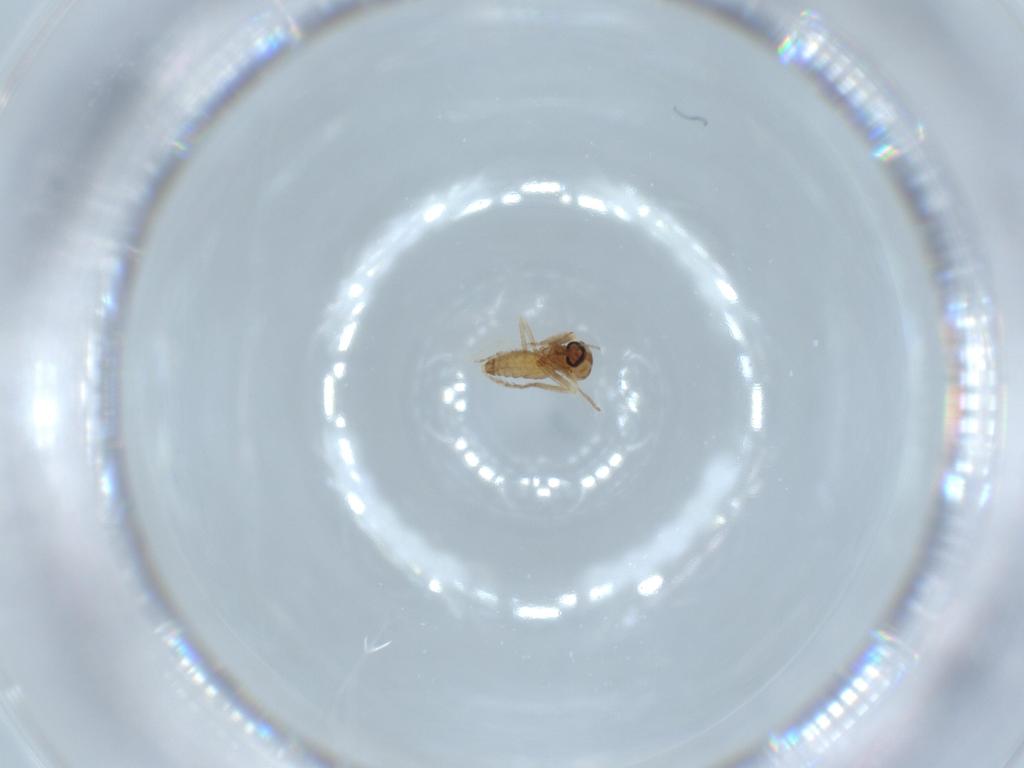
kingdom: Animalia
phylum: Arthropoda
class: Insecta
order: Diptera
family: Ceratopogonidae
